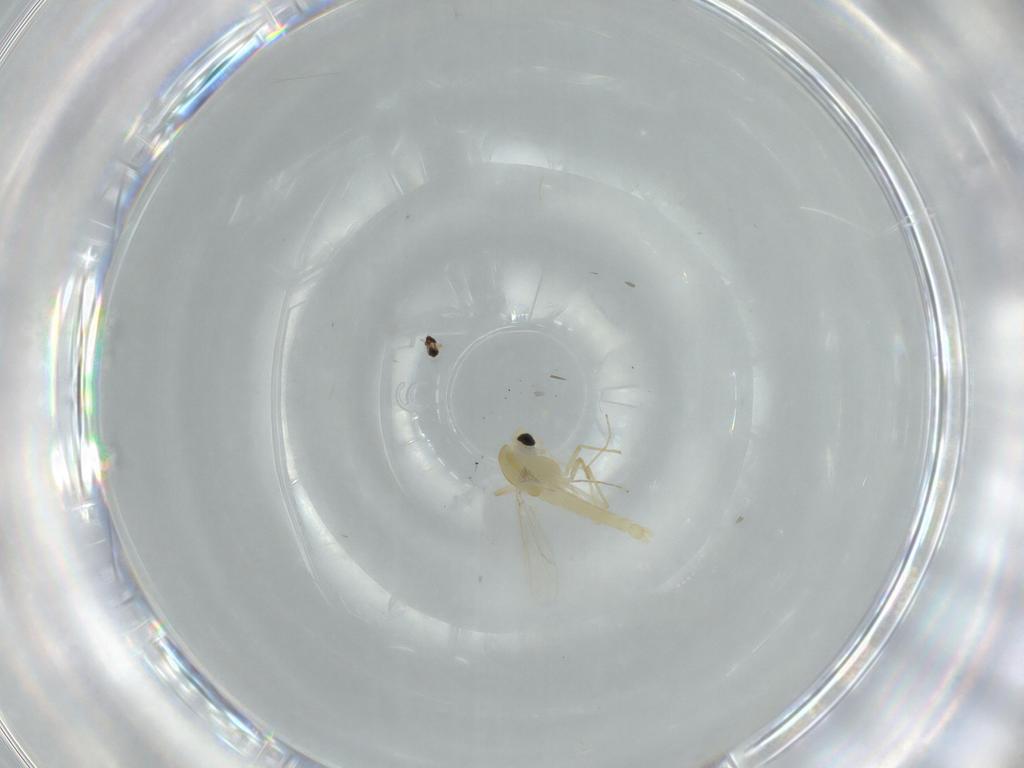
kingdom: Animalia
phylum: Arthropoda
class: Insecta
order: Diptera
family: Chironomidae
